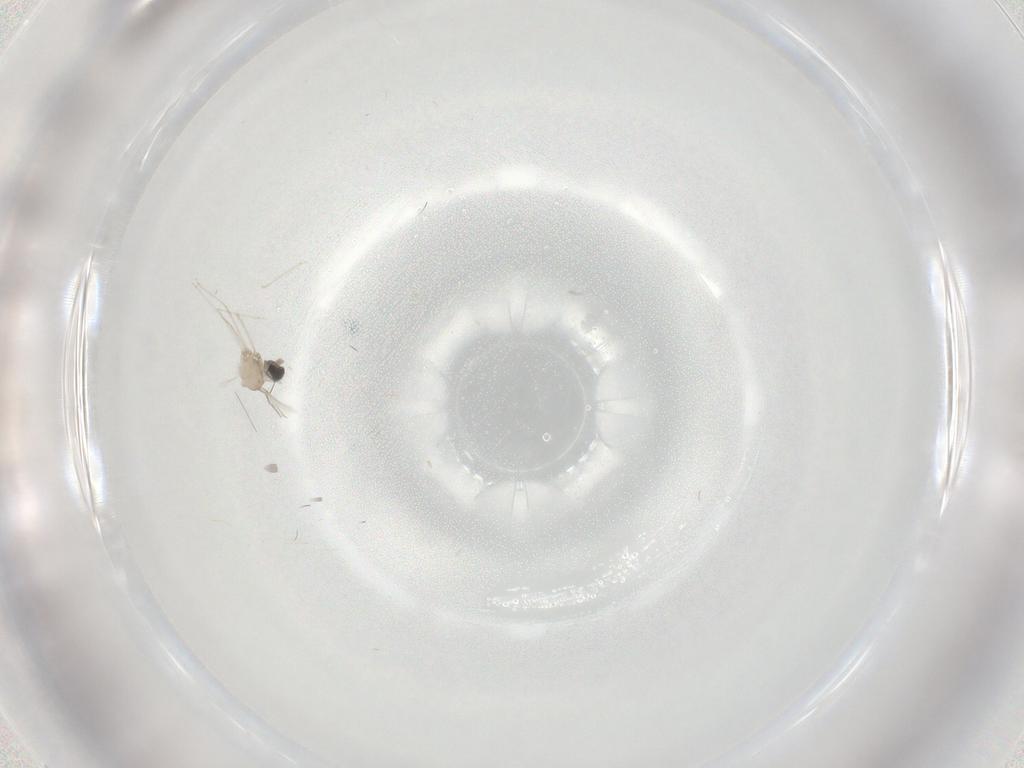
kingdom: Animalia
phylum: Arthropoda
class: Insecta
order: Diptera
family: Cecidomyiidae
